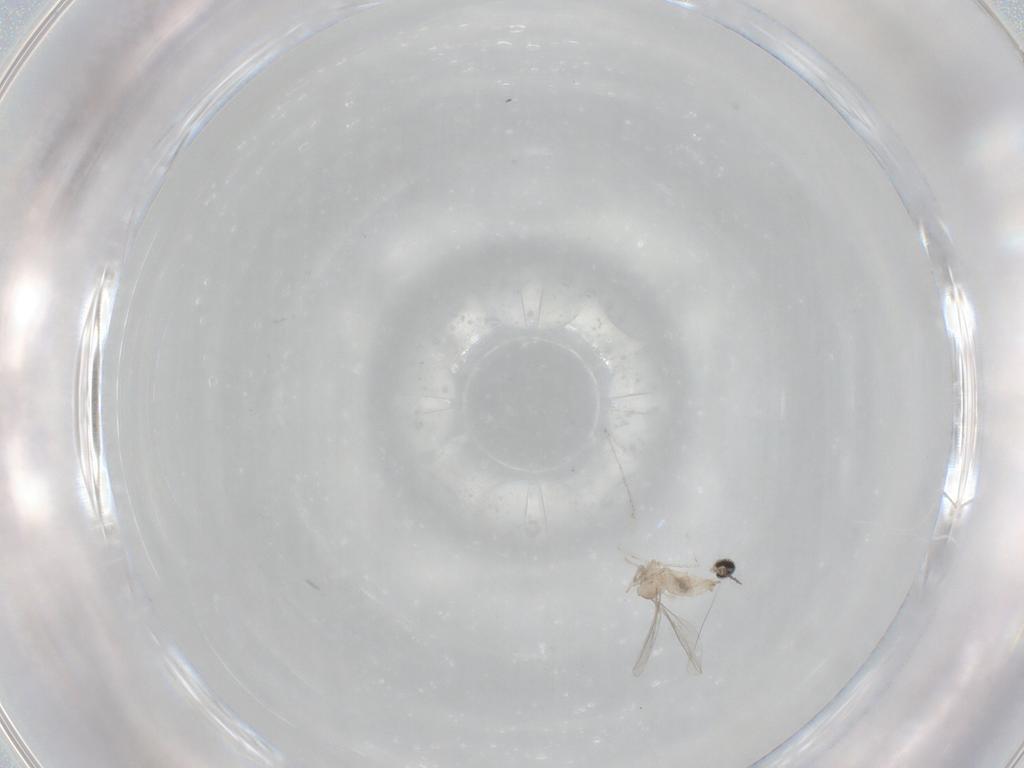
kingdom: Animalia
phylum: Arthropoda
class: Insecta
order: Diptera
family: Cecidomyiidae
